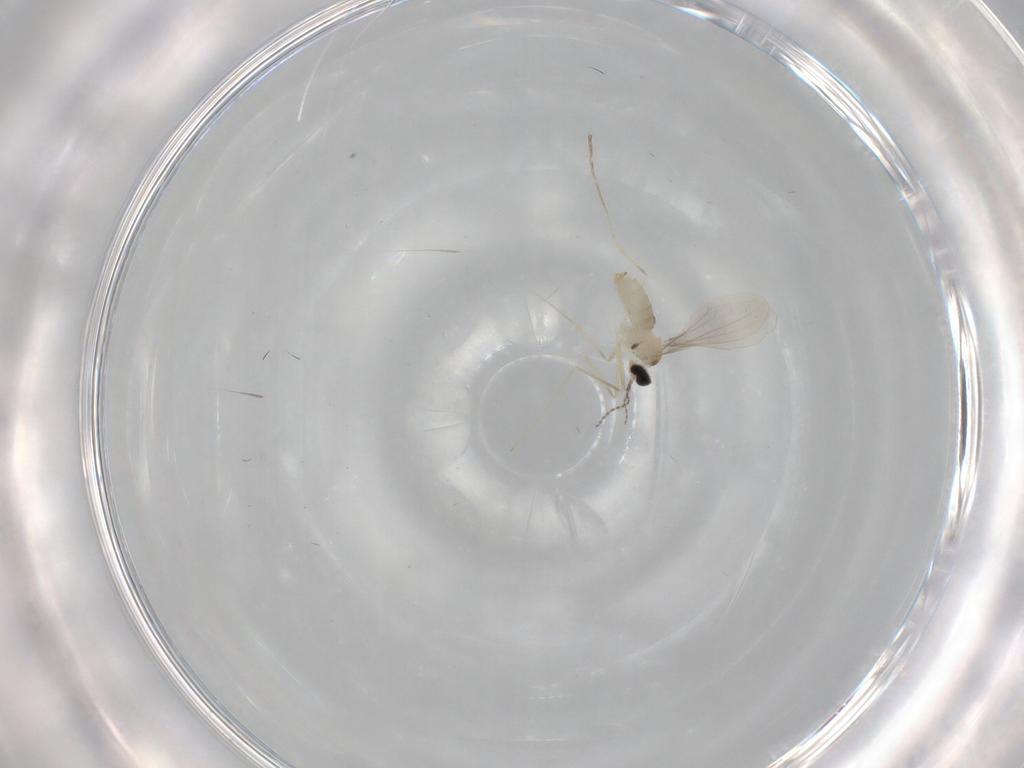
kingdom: Animalia
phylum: Arthropoda
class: Insecta
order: Diptera
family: Cecidomyiidae
